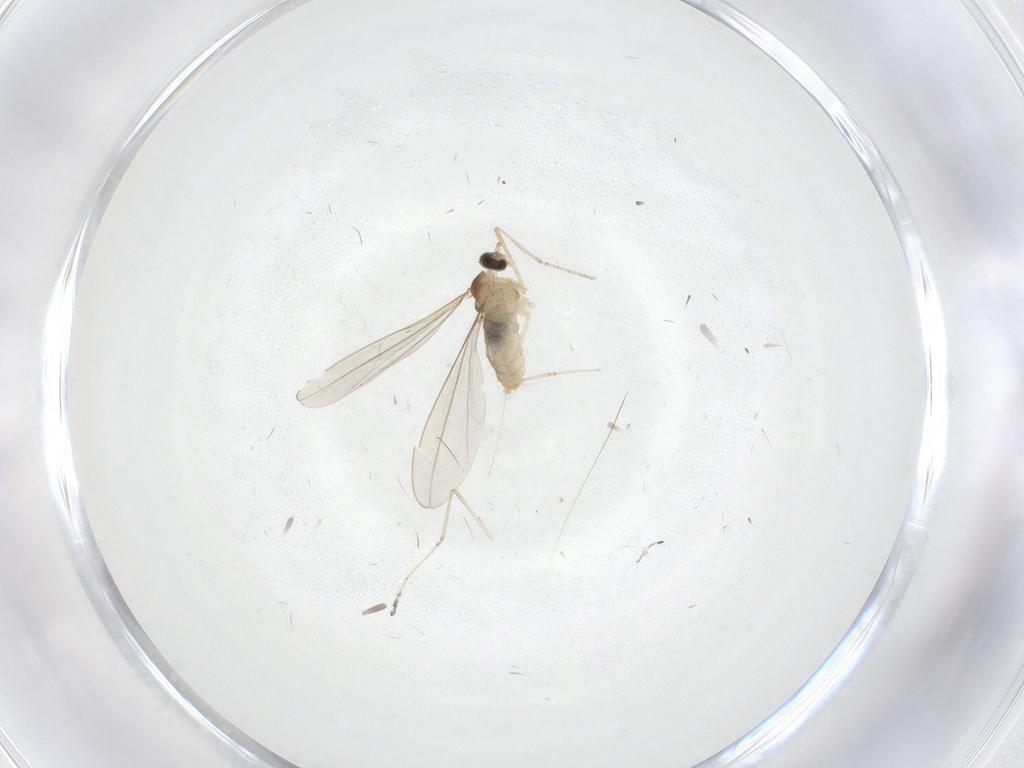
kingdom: Animalia
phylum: Arthropoda
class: Insecta
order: Diptera
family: Cecidomyiidae
